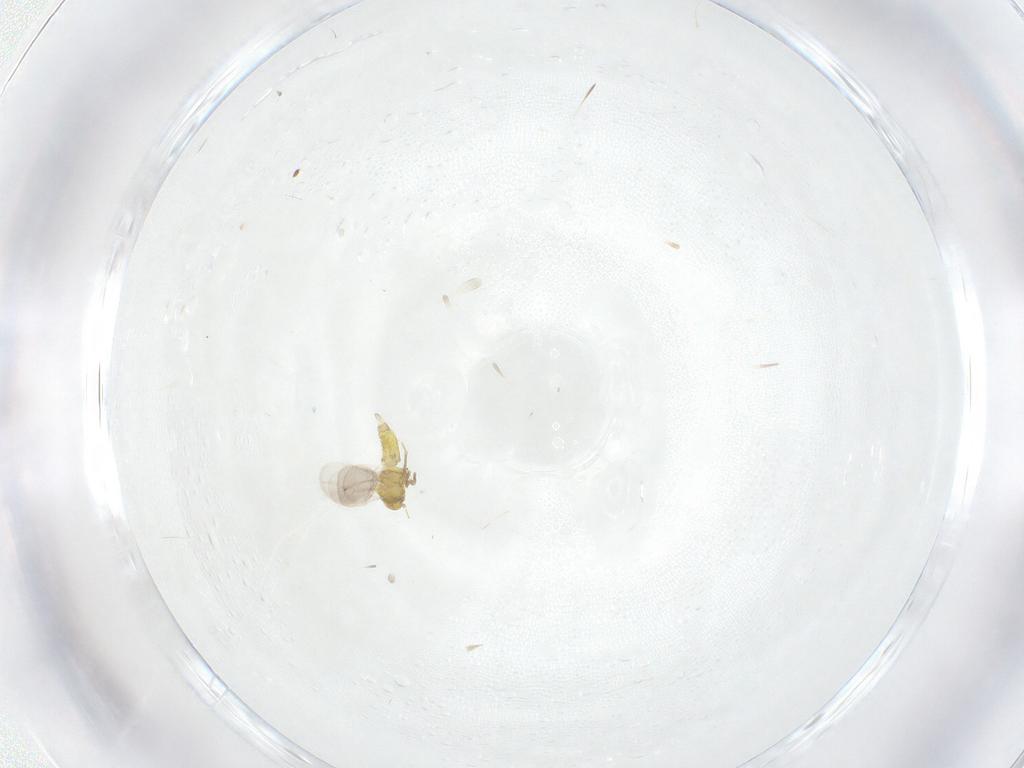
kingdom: Animalia
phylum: Arthropoda
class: Insecta
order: Hemiptera
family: Aleyrodidae
